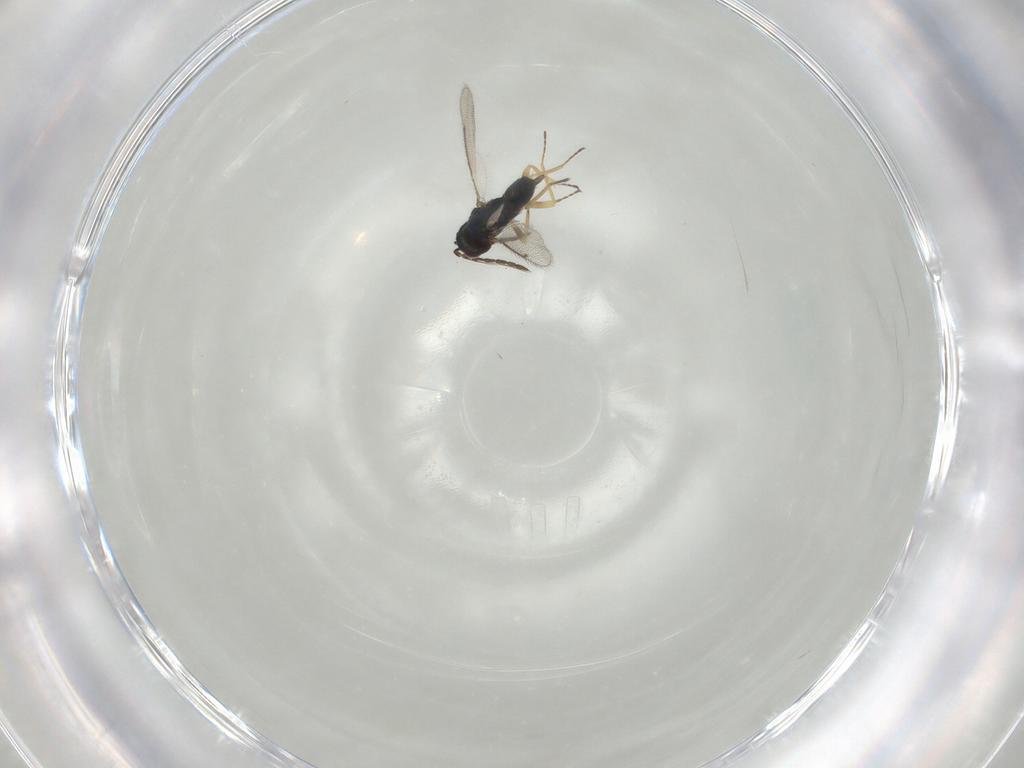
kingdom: Animalia
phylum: Arthropoda
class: Insecta
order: Hymenoptera
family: Eulophidae
